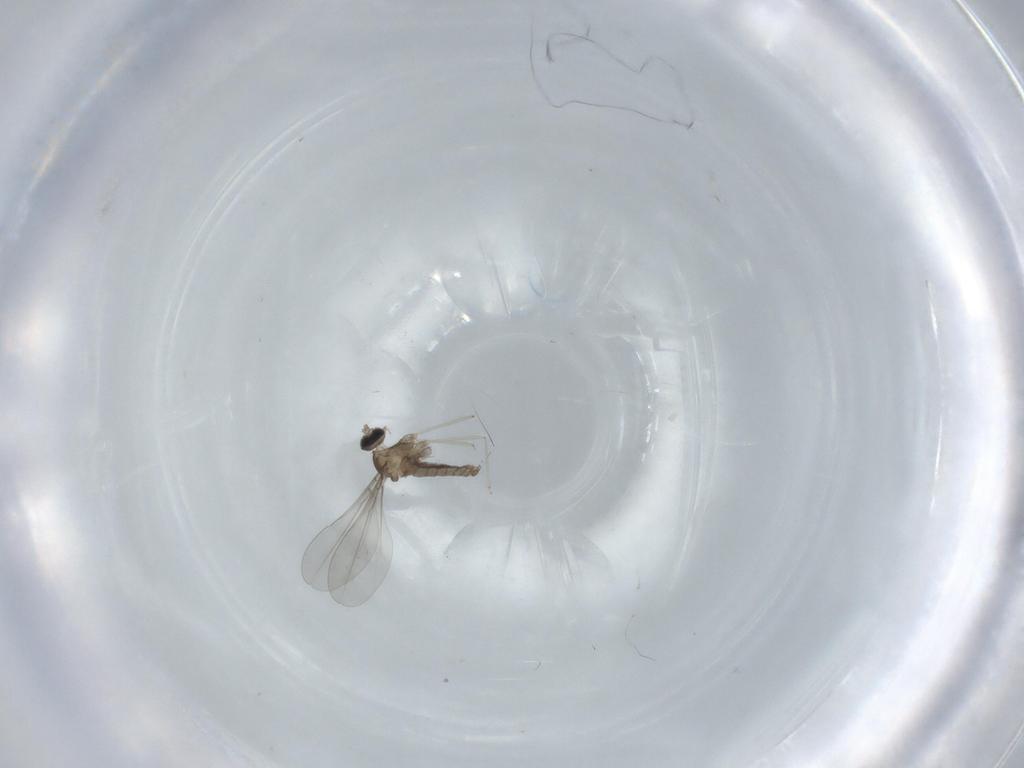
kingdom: Animalia
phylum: Arthropoda
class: Insecta
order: Diptera
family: Cecidomyiidae
